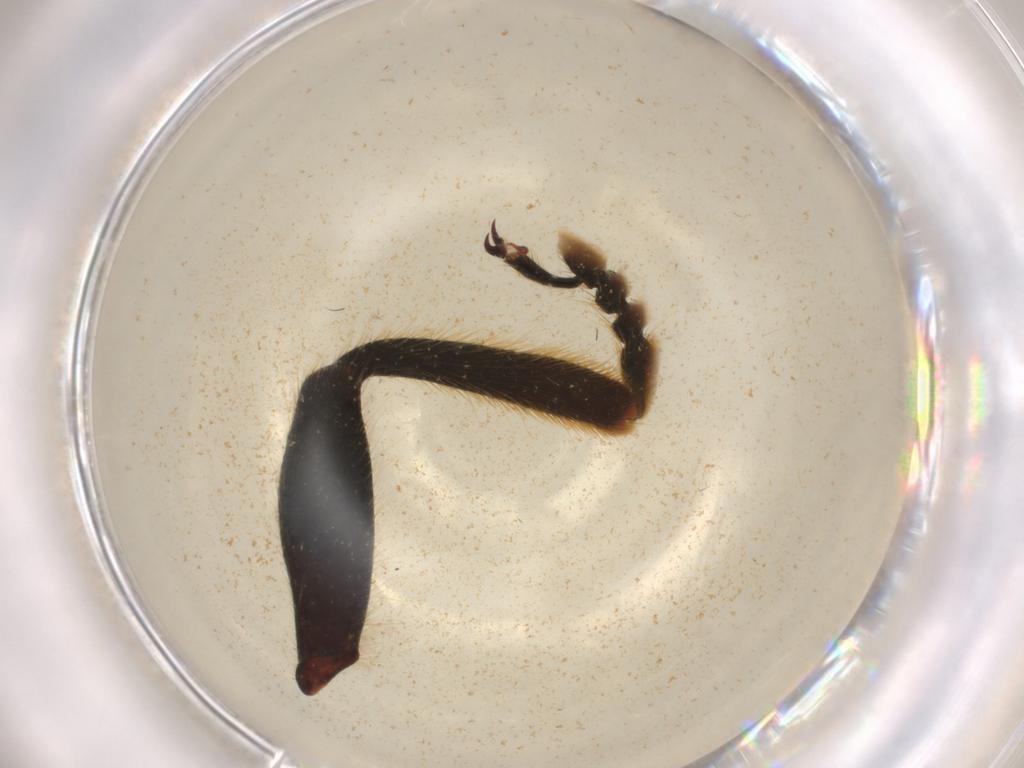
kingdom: Animalia
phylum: Arthropoda
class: Insecta
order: Coleoptera
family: Tenebrionidae
